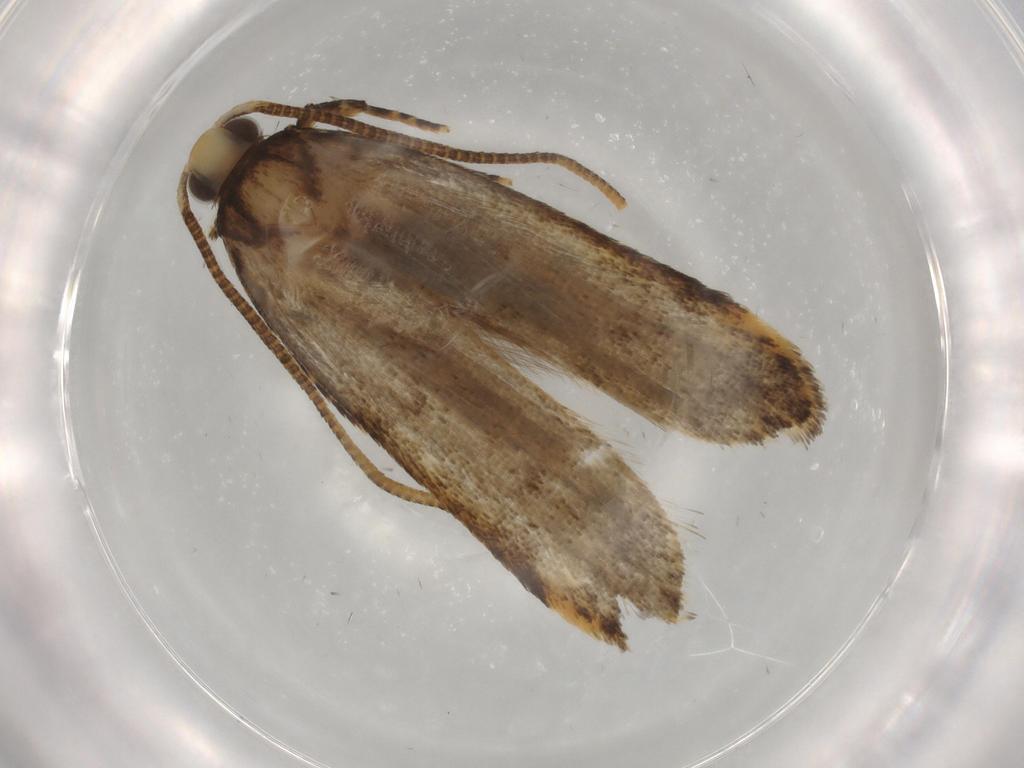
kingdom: Animalia
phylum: Arthropoda
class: Insecta
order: Lepidoptera
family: Autostichidae
